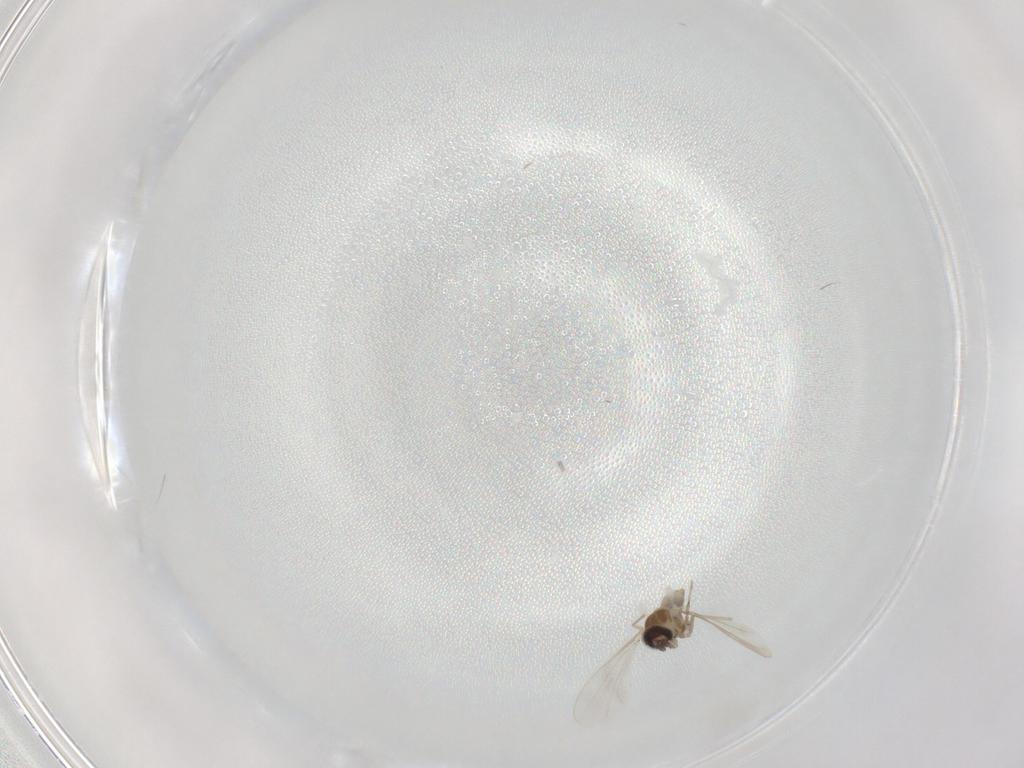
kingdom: Animalia
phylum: Arthropoda
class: Insecta
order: Diptera
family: Cecidomyiidae
